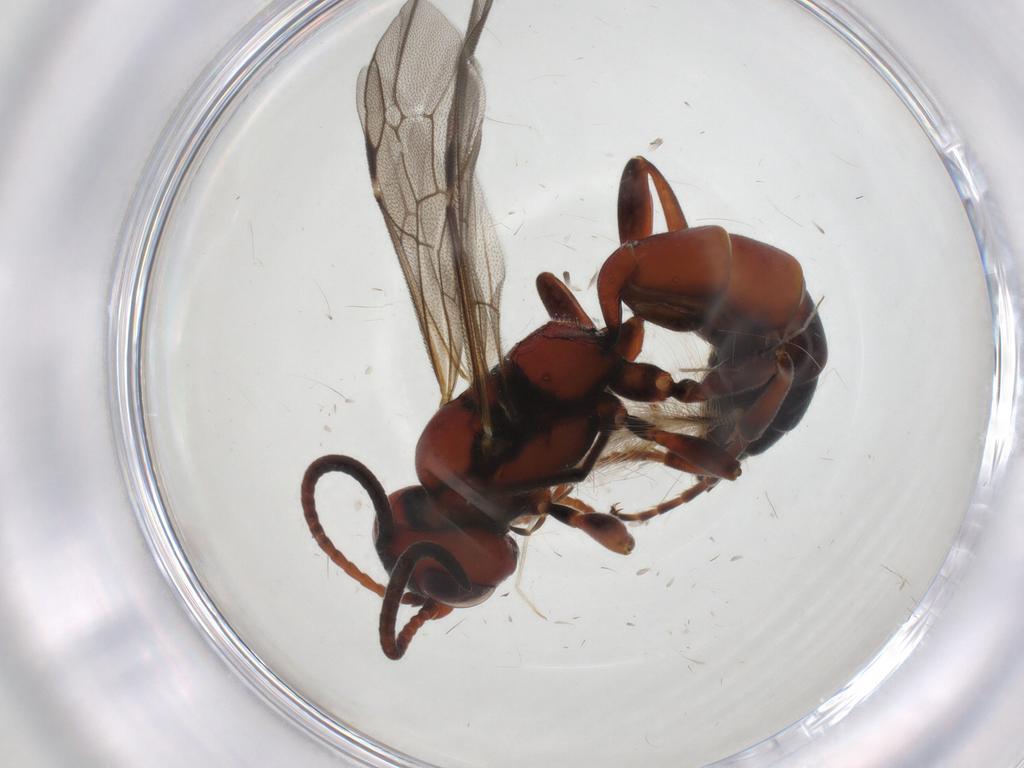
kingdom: Animalia
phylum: Arthropoda
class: Insecta
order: Hymenoptera
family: Ichneumonidae
